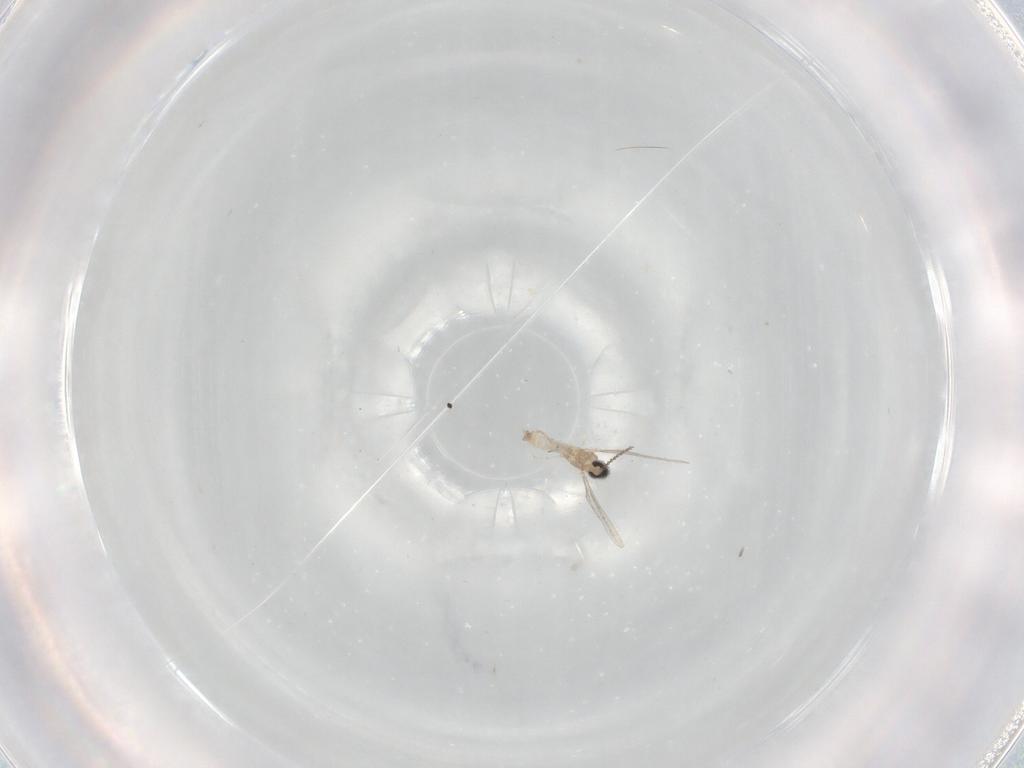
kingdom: Animalia
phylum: Arthropoda
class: Insecta
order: Diptera
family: Cecidomyiidae
